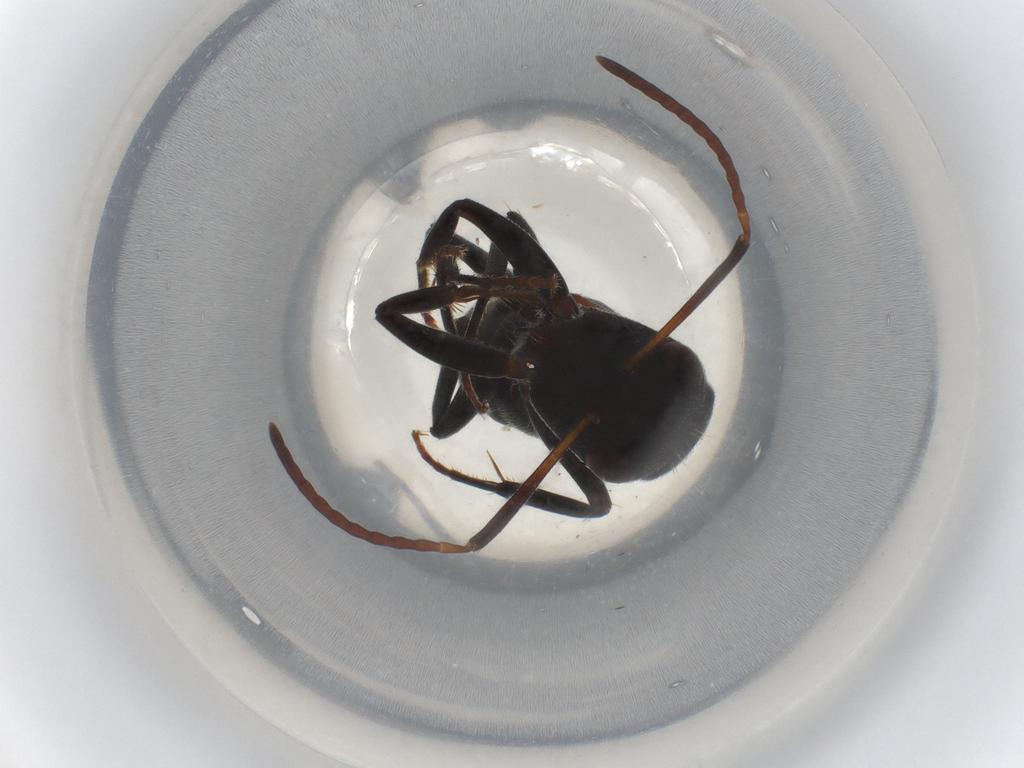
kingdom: Animalia
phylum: Arthropoda
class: Insecta
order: Hymenoptera
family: Formicidae
